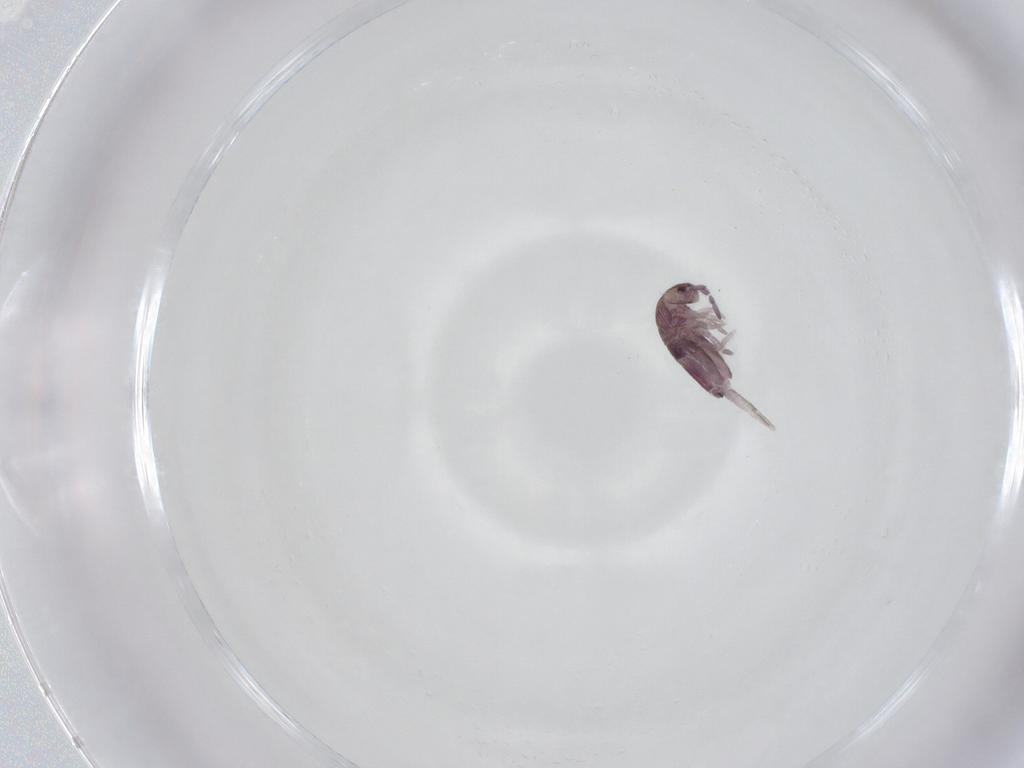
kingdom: Animalia
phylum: Arthropoda
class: Collembola
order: Entomobryomorpha
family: Entomobryidae
